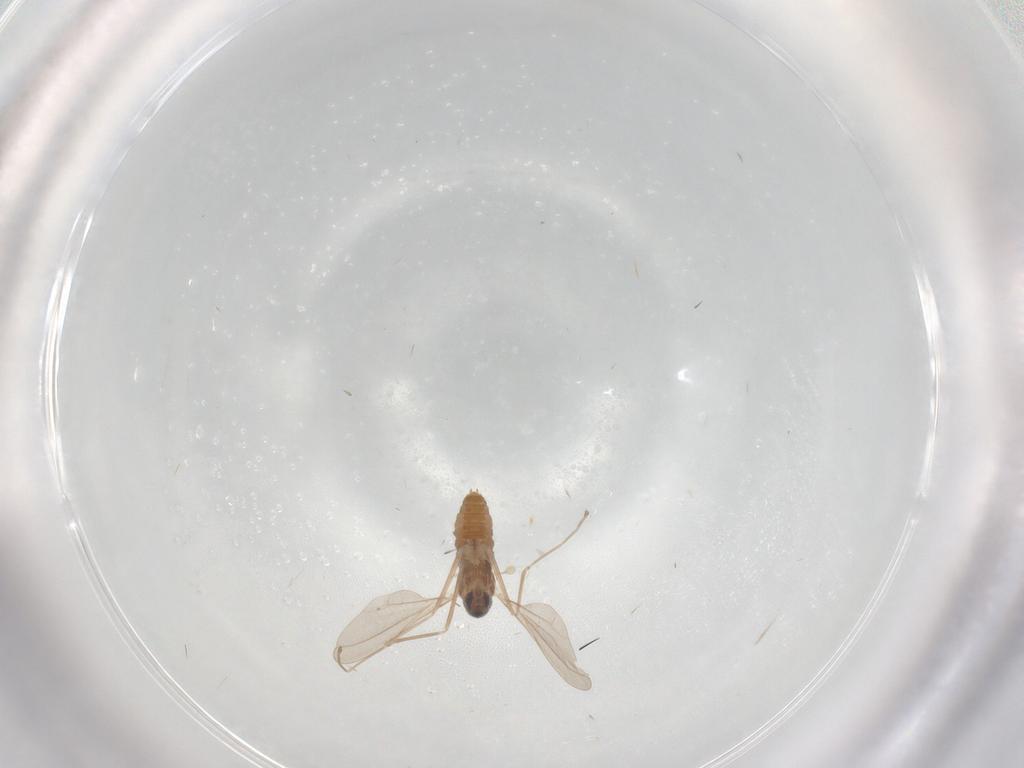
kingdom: Animalia
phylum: Arthropoda
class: Insecta
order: Diptera
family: Cecidomyiidae
